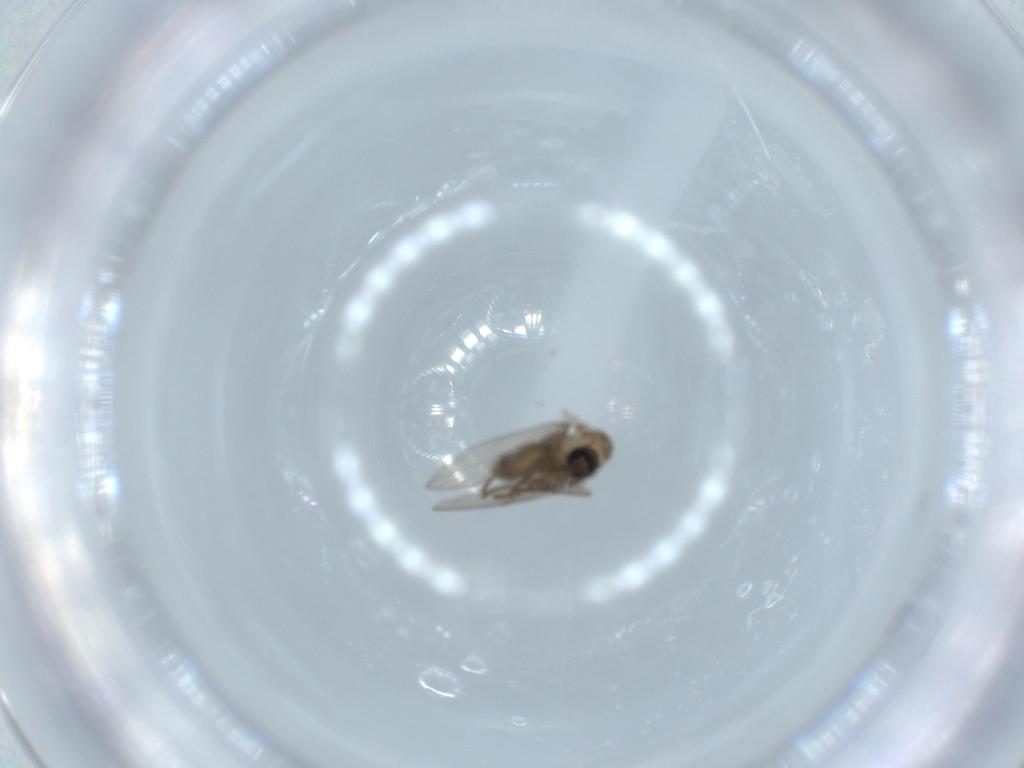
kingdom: Animalia
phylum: Arthropoda
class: Insecta
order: Diptera
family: Psychodidae
